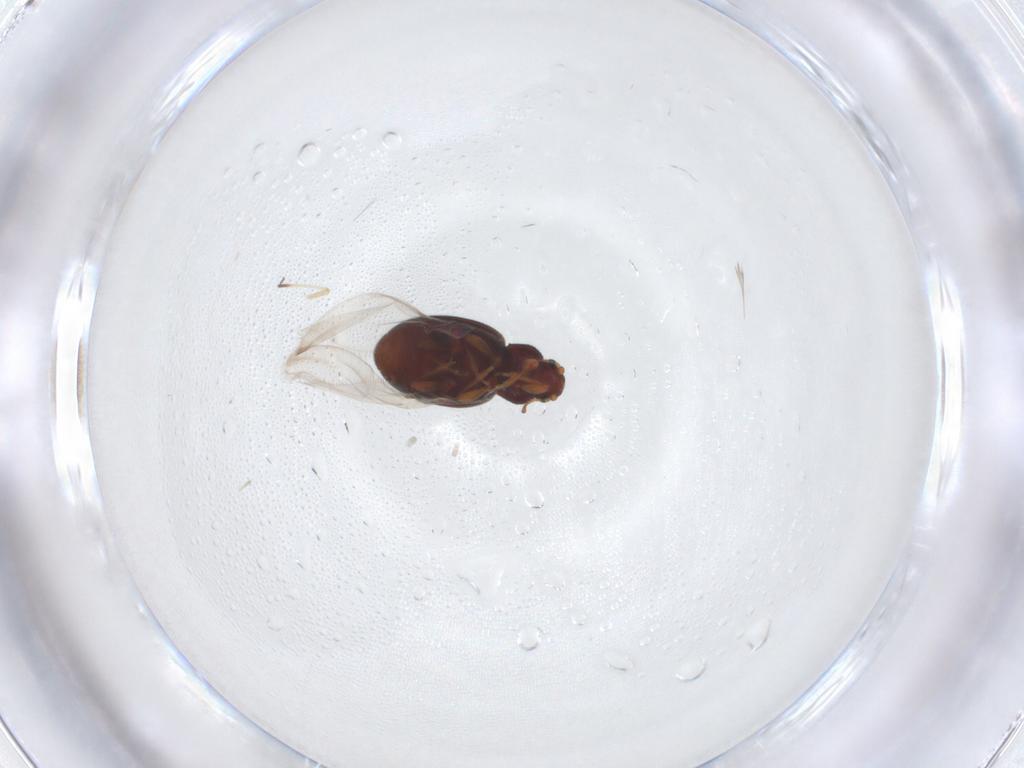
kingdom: Animalia
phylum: Arthropoda
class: Insecta
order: Coleoptera
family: Latridiidae
